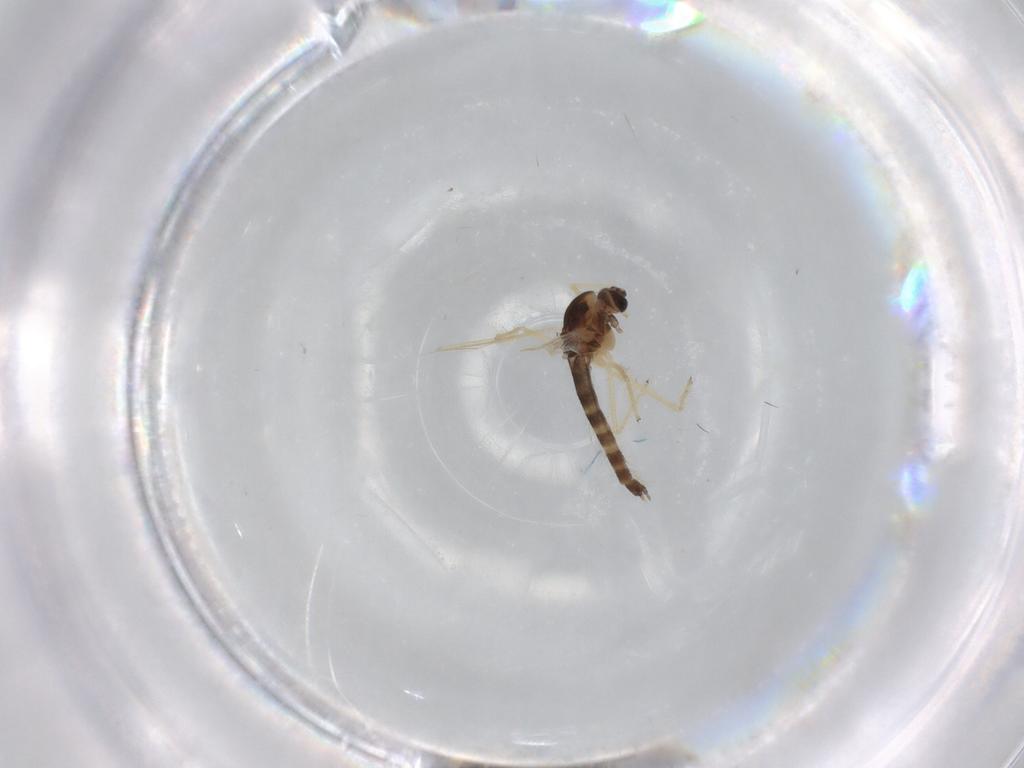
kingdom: Animalia
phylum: Arthropoda
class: Insecta
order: Diptera
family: Chironomidae
